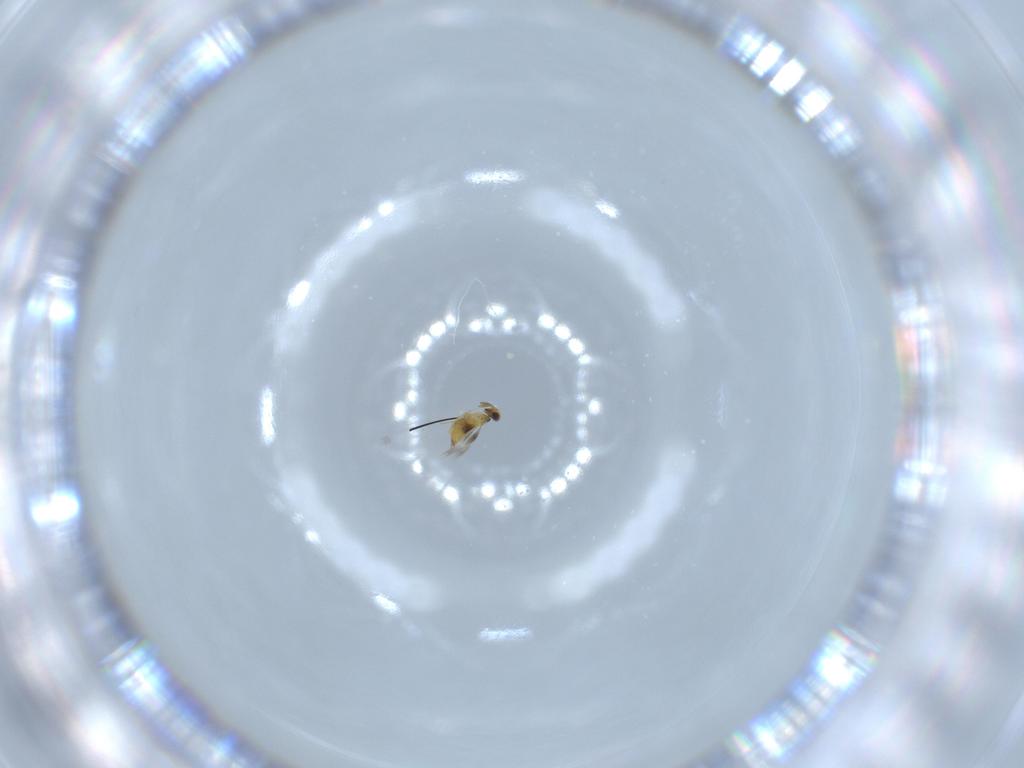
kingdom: Animalia
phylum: Arthropoda
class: Insecta
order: Hymenoptera
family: Mymaridae
